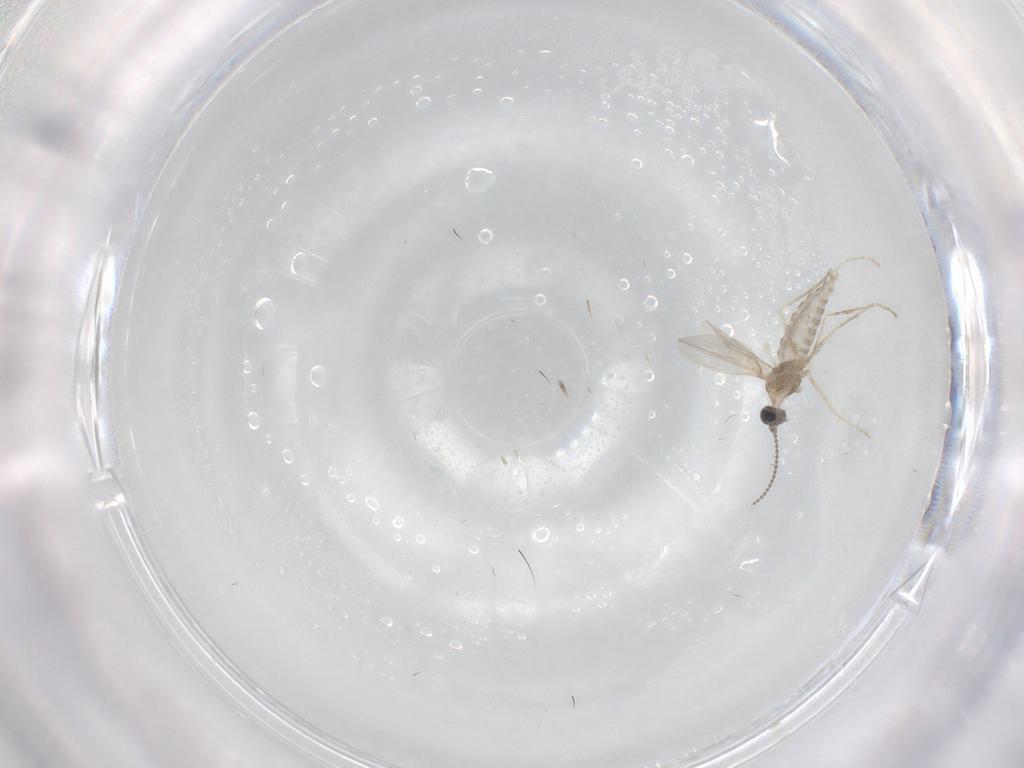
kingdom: Animalia
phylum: Arthropoda
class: Insecta
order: Diptera
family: Cecidomyiidae
